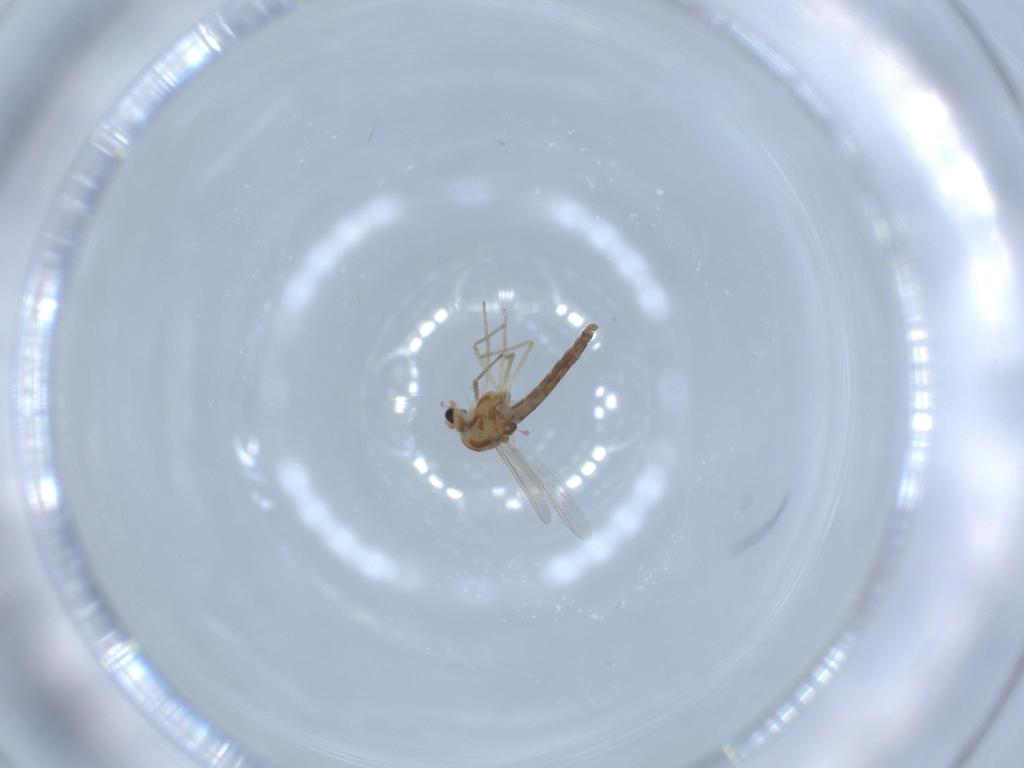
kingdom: Animalia
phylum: Arthropoda
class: Insecta
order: Diptera
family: Chironomidae
